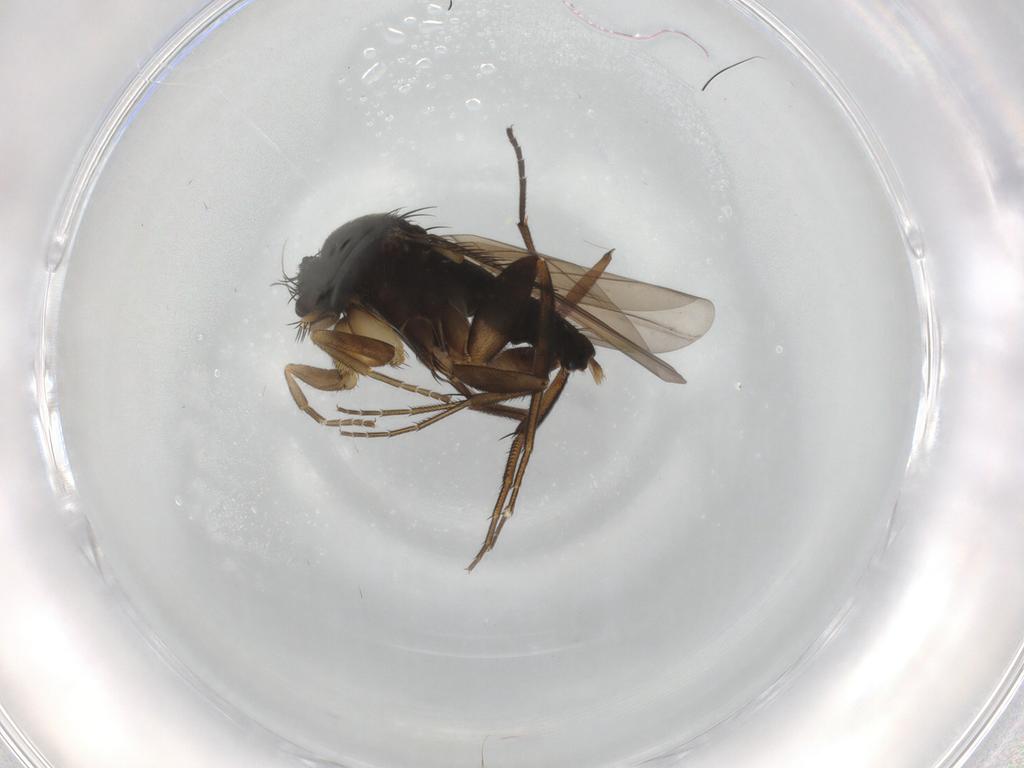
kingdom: Animalia
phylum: Arthropoda
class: Insecta
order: Diptera
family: Phoridae
